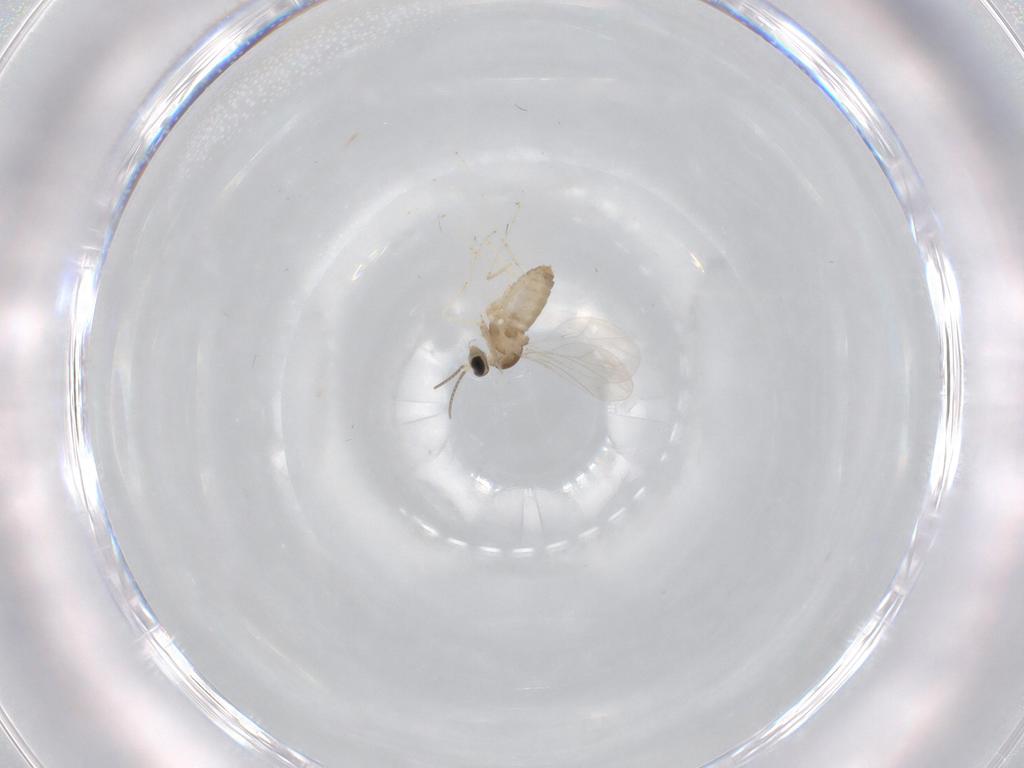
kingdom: Animalia
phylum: Arthropoda
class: Insecta
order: Diptera
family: Cecidomyiidae
